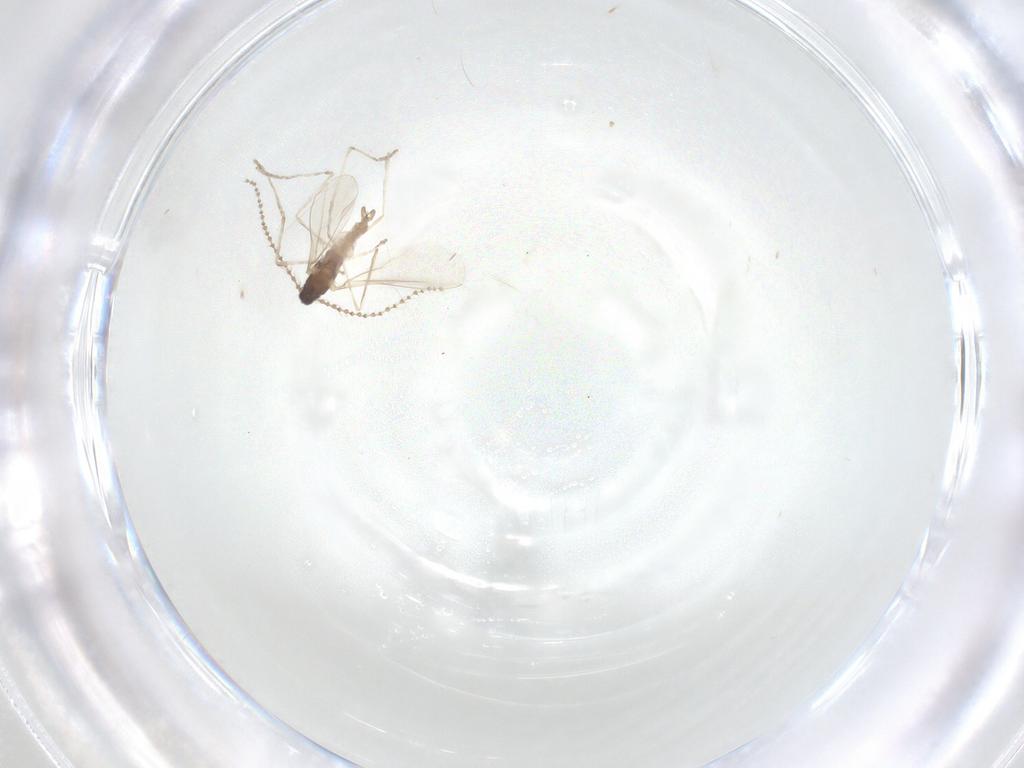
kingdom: Animalia
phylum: Arthropoda
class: Insecta
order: Diptera
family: Cecidomyiidae
